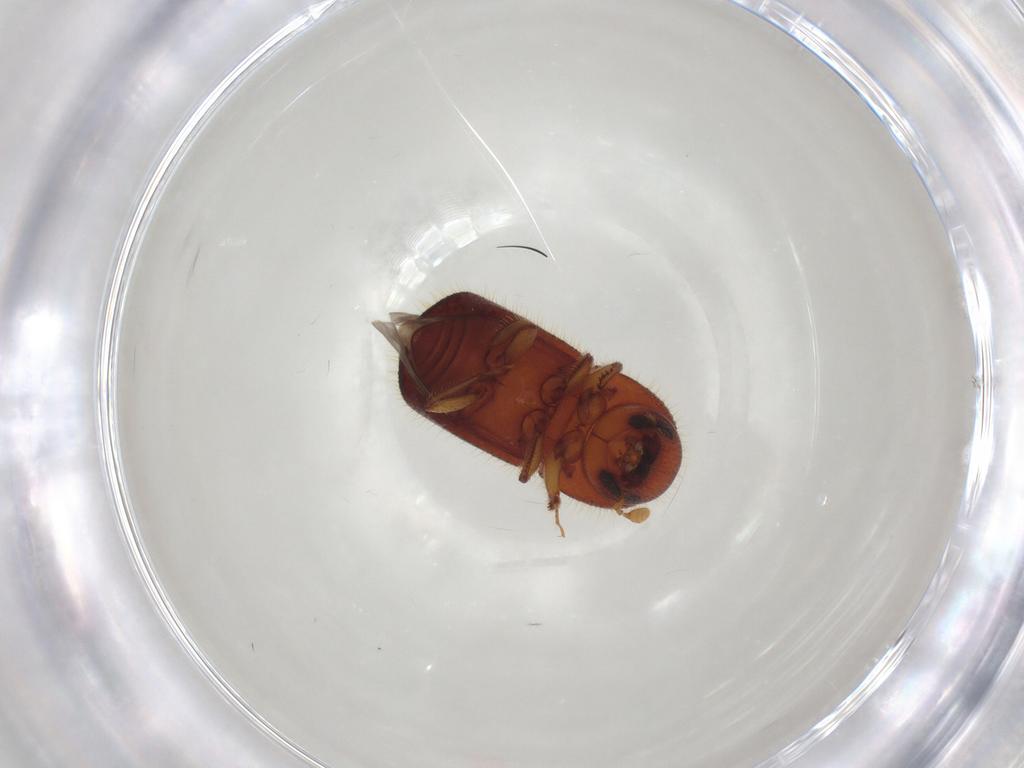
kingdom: Animalia
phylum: Arthropoda
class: Insecta
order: Coleoptera
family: Curculionidae
